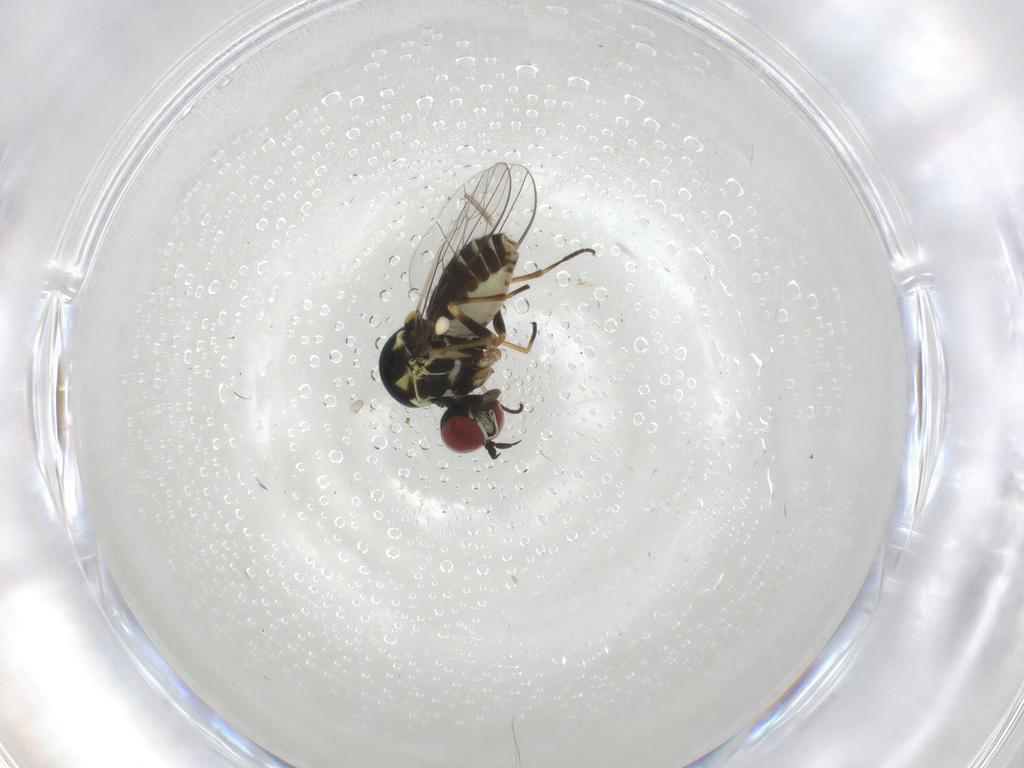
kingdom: Animalia
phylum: Arthropoda
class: Insecta
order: Diptera
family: Bombyliidae
